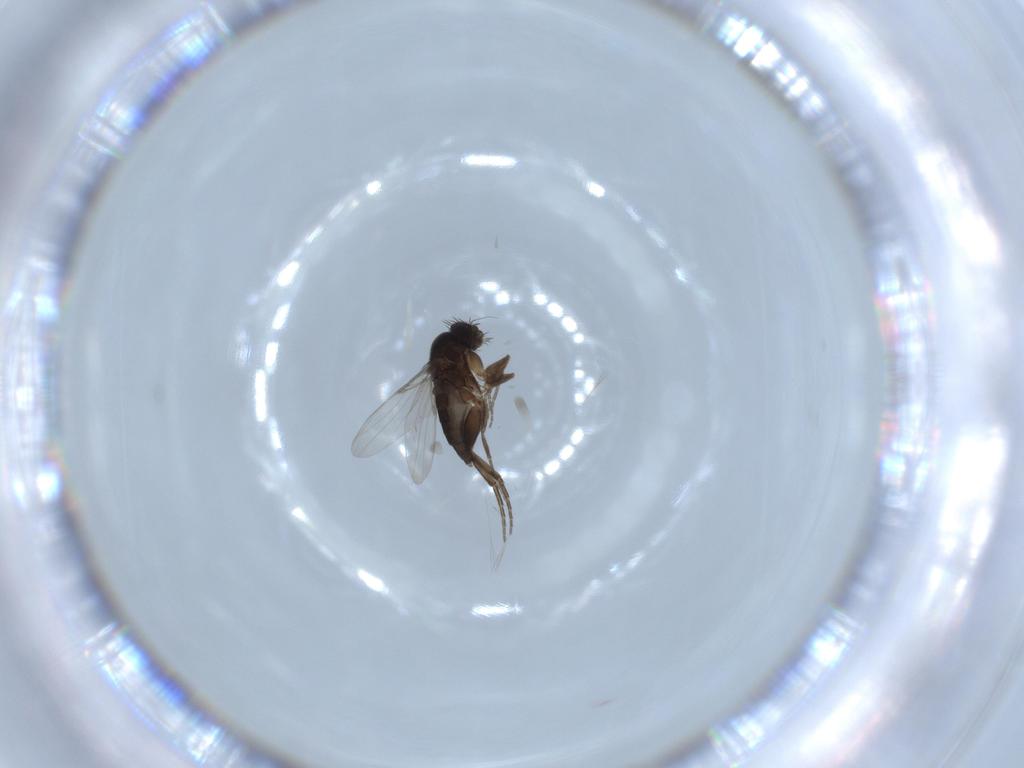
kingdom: Animalia
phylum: Arthropoda
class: Insecta
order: Diptera
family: Phoridae
